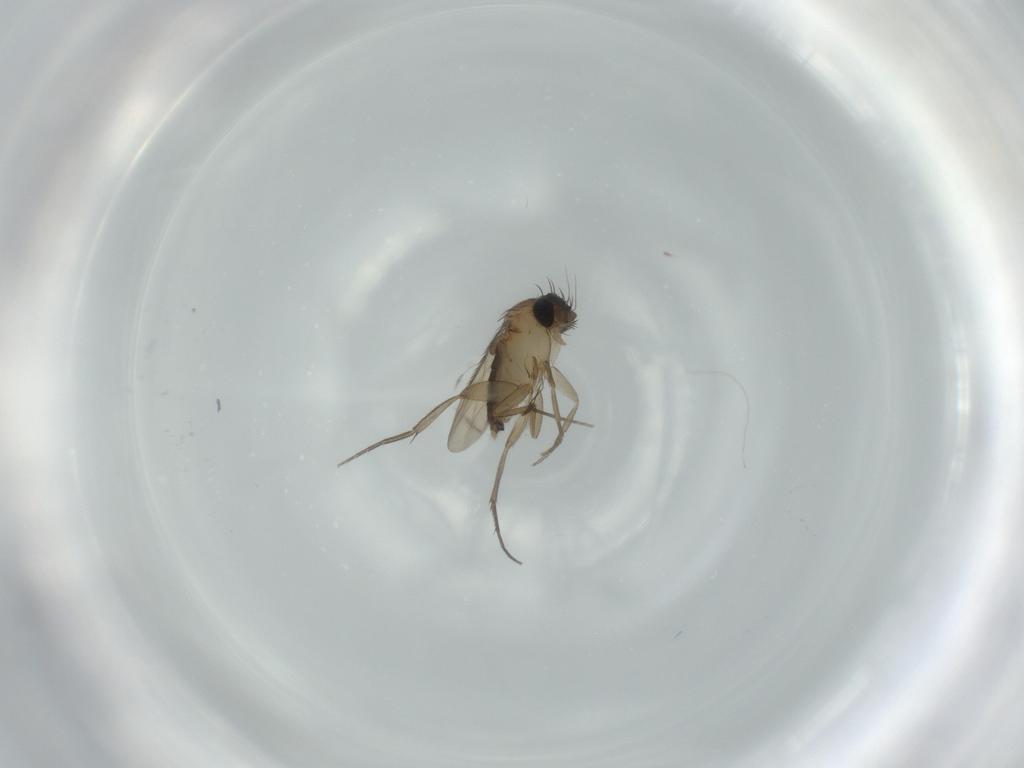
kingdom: Animalia
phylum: Arthropoda
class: Insecta
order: Diptera
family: Phoridae
